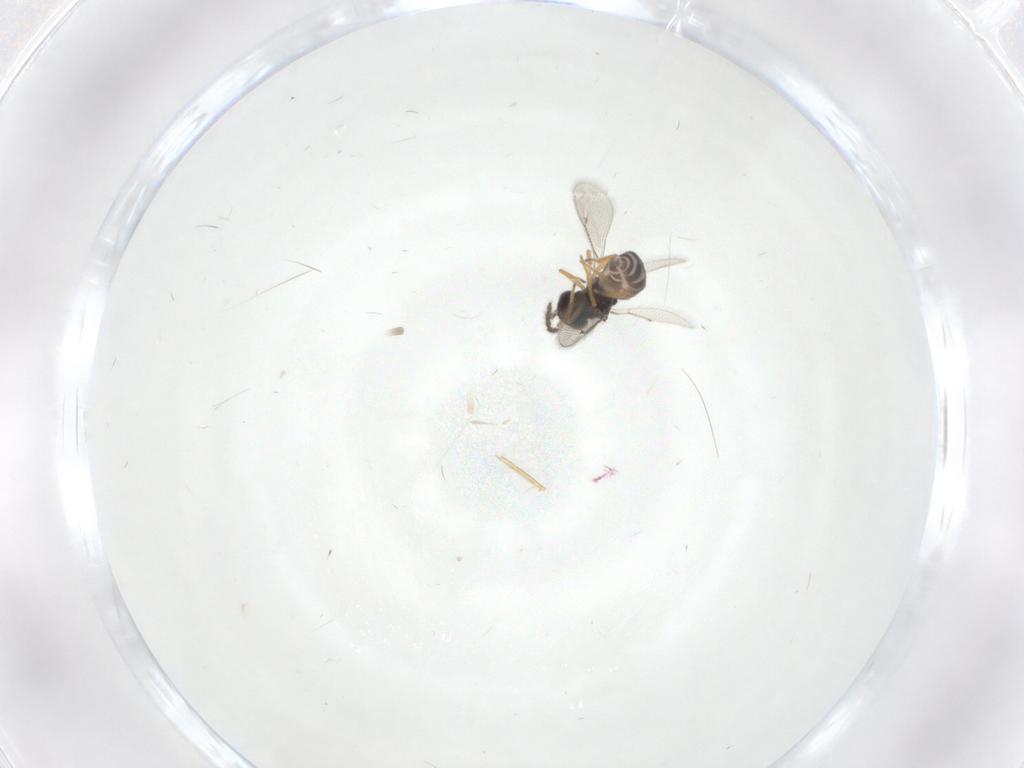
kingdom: Animalia
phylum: Arthropoda
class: Insecta
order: Hymenoptera
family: Eulophidae
